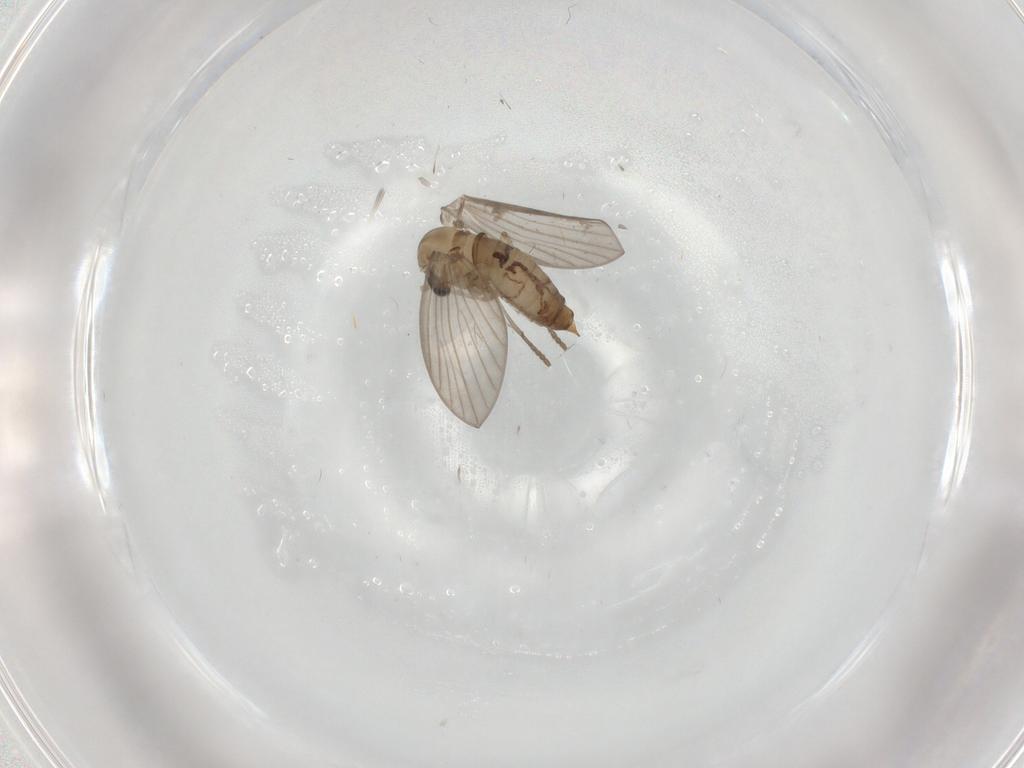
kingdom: Animalia
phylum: Arthropoda
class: Insecta
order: Diptera
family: Psychodidae
